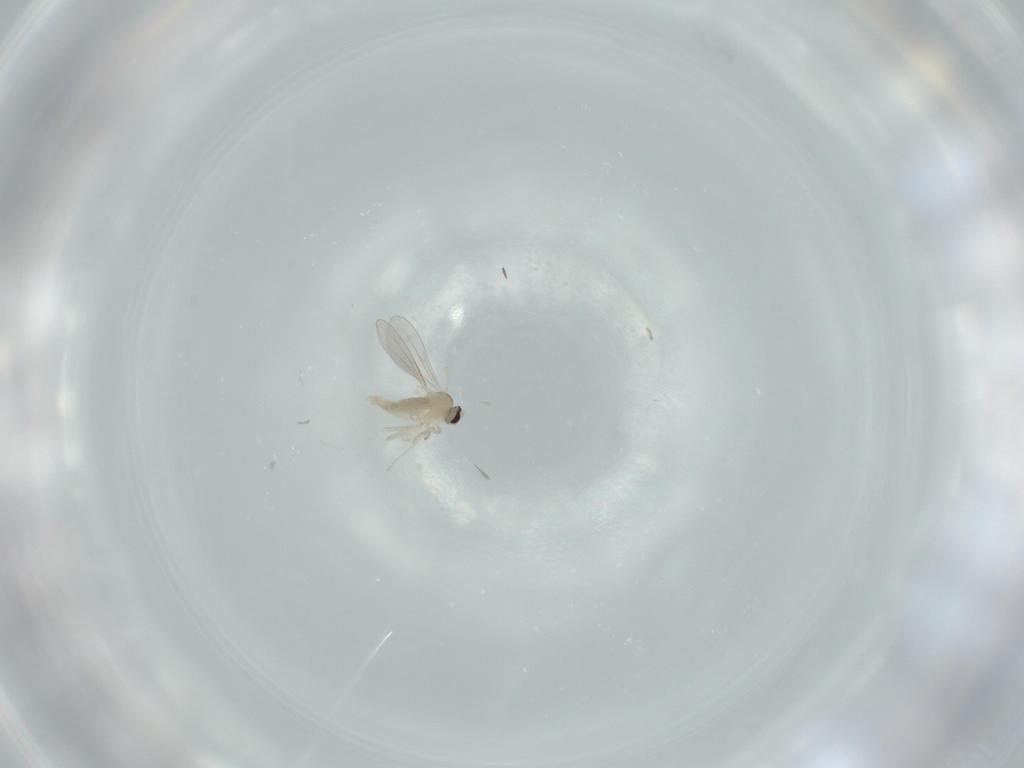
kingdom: Animalia
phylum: Arthropoda
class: Insecta
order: Diptera
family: Cecidomyiidae
